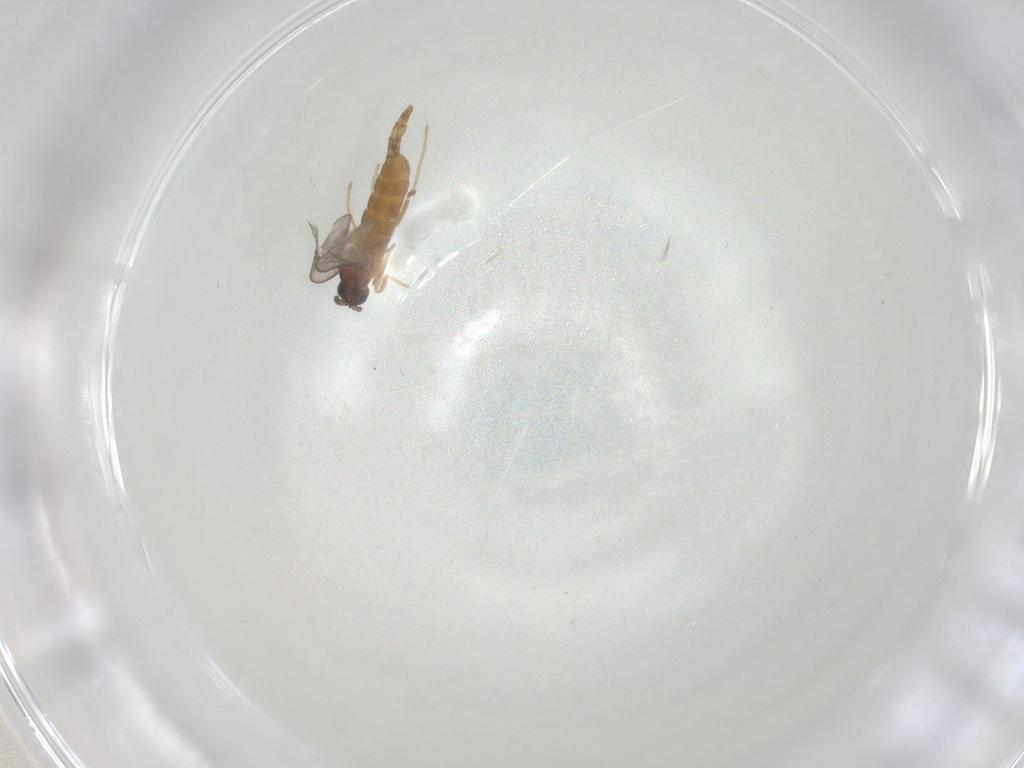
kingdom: Animalia
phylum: Arthropoda
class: Insecta
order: Diptera
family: Cecidomyiidae
